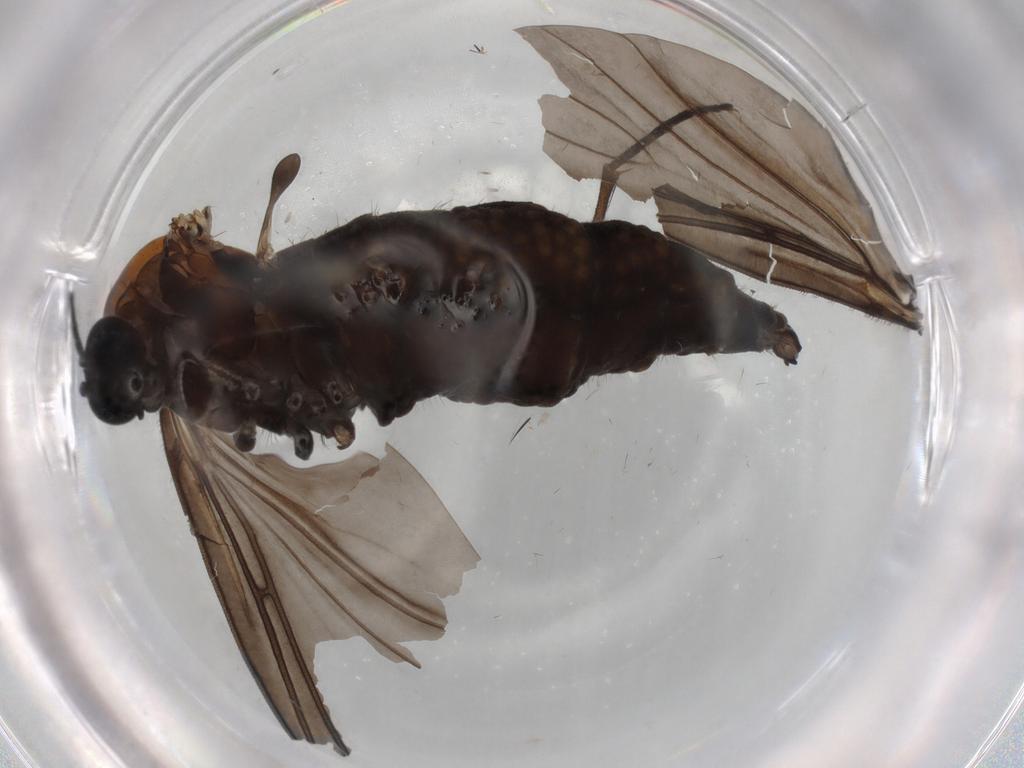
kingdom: Animalia
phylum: Arthropoda
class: Insecta
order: Diptera
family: Sciaridae
